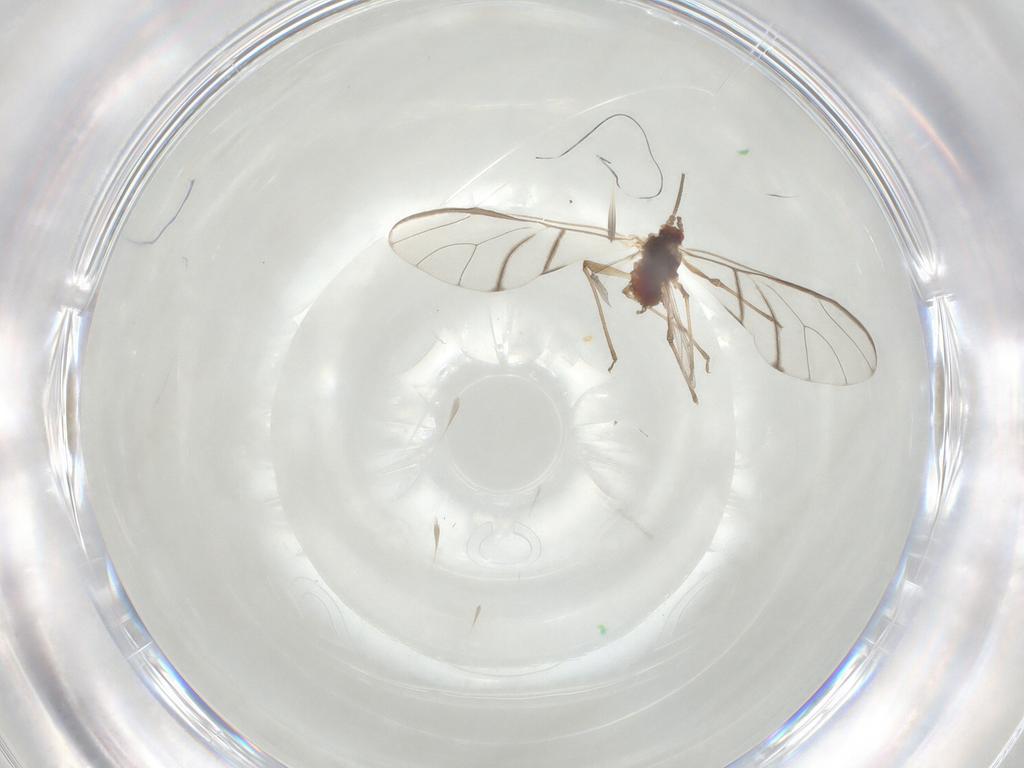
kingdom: Animalia
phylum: Arthropoda
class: Insecta
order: Hemiptera
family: Aphididae
